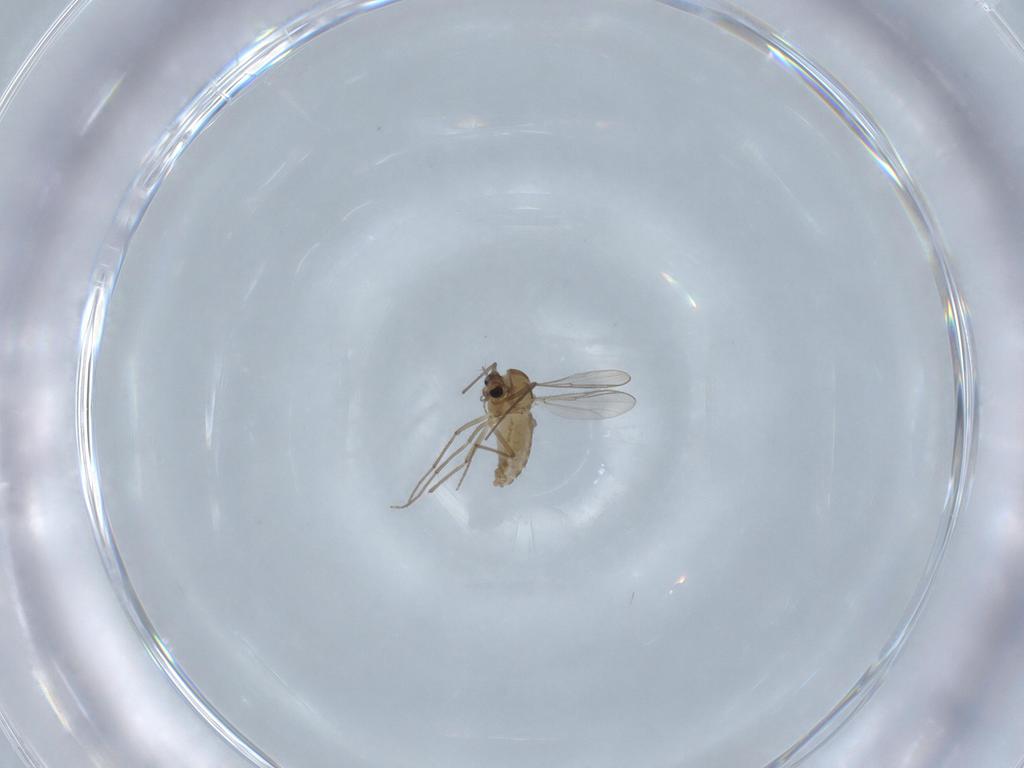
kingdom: Animalia
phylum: Arthropoda
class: Insecta
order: Diptera
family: Chironomidae
